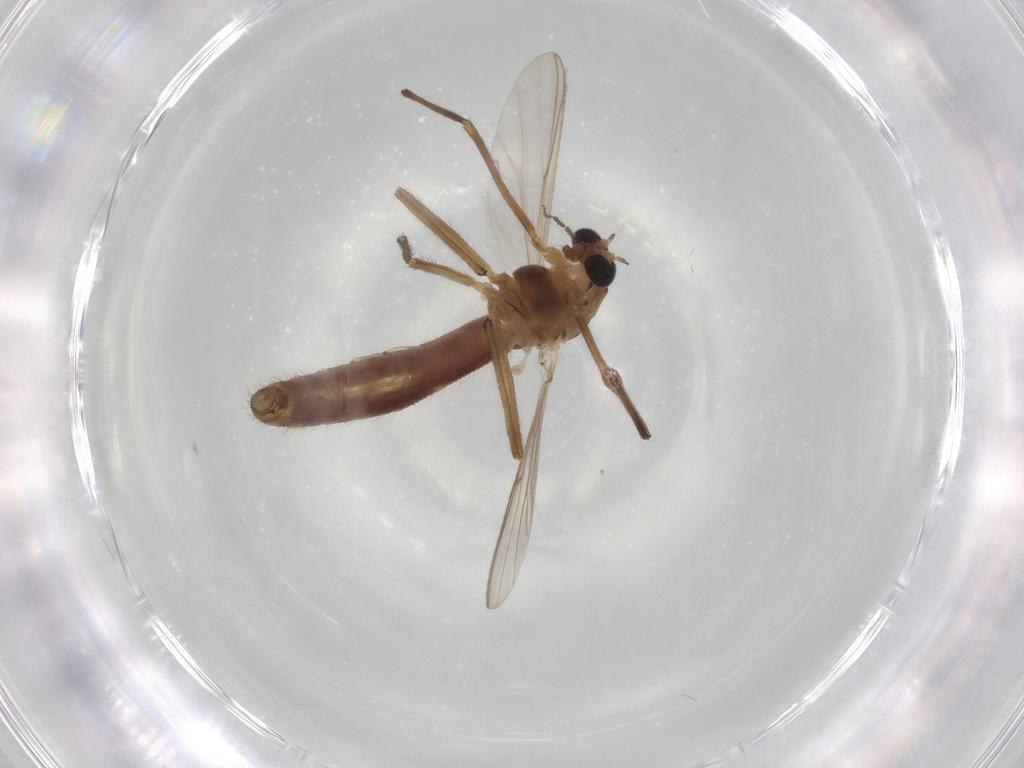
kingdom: Animalia
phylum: Arthropoda
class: Insecta
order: Diptera
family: Chironomidae
